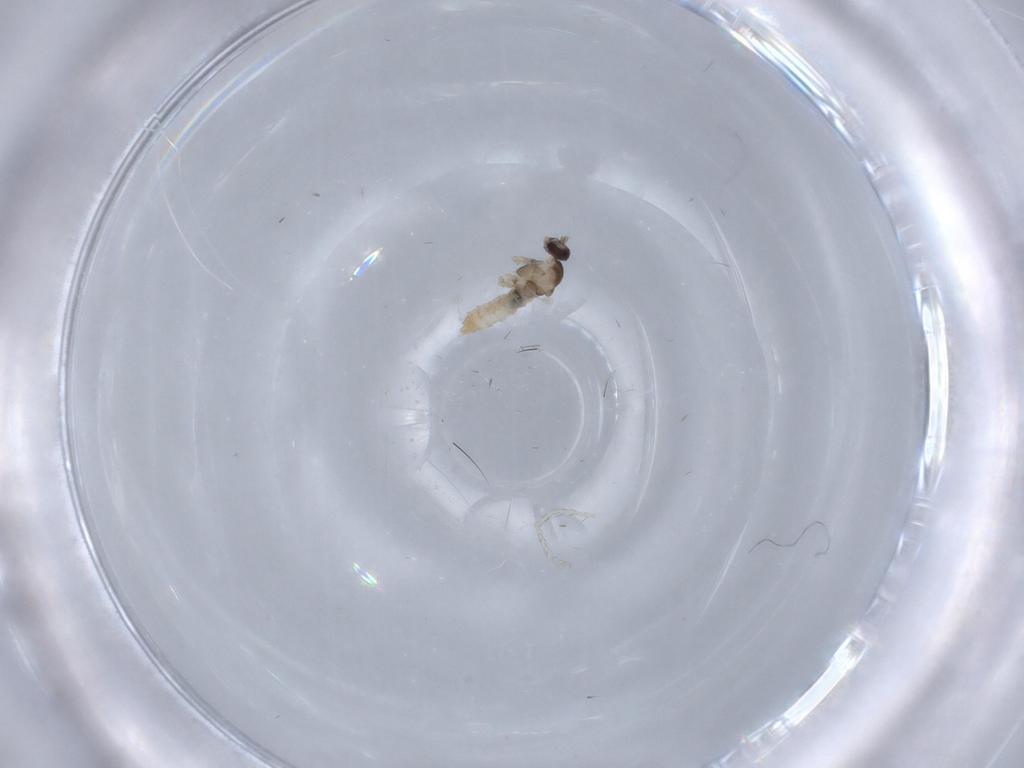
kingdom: Animalia
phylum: Arthropoda
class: Insecta
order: Diptera
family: Cecidomyiidae
